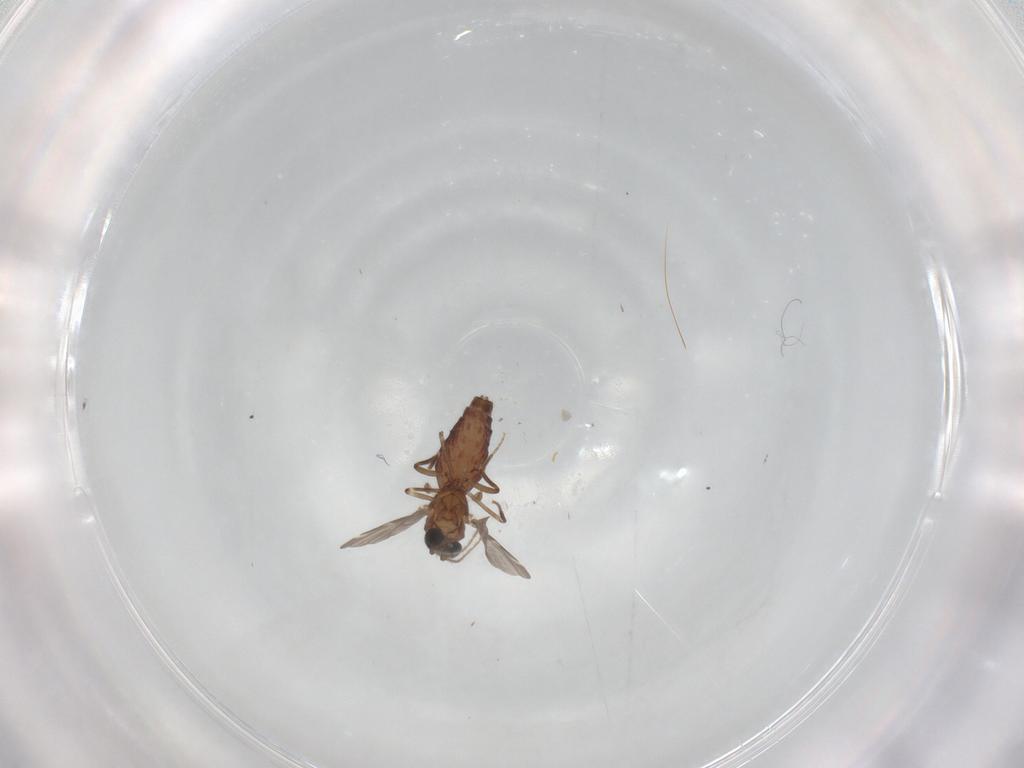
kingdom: Animalia
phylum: Arthropoda
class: Insecta
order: Diptera
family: Ceratopogonidae
